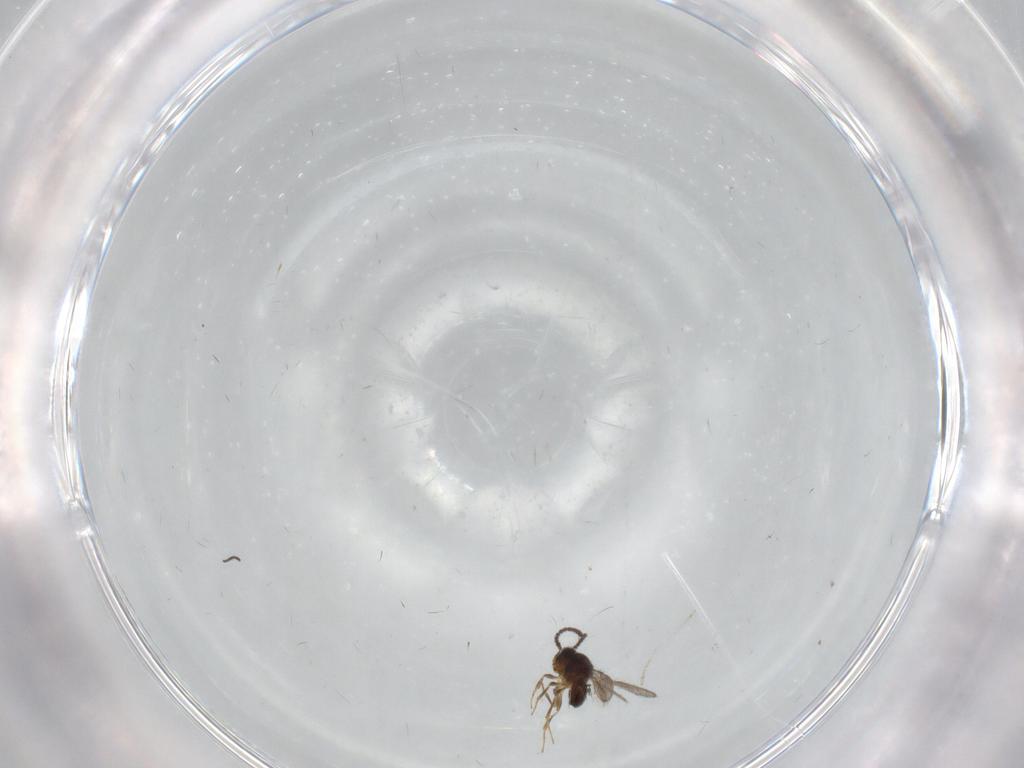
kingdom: Animalia
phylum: Arthropoda
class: Insecta
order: Hymenoptera
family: Scelionidae
